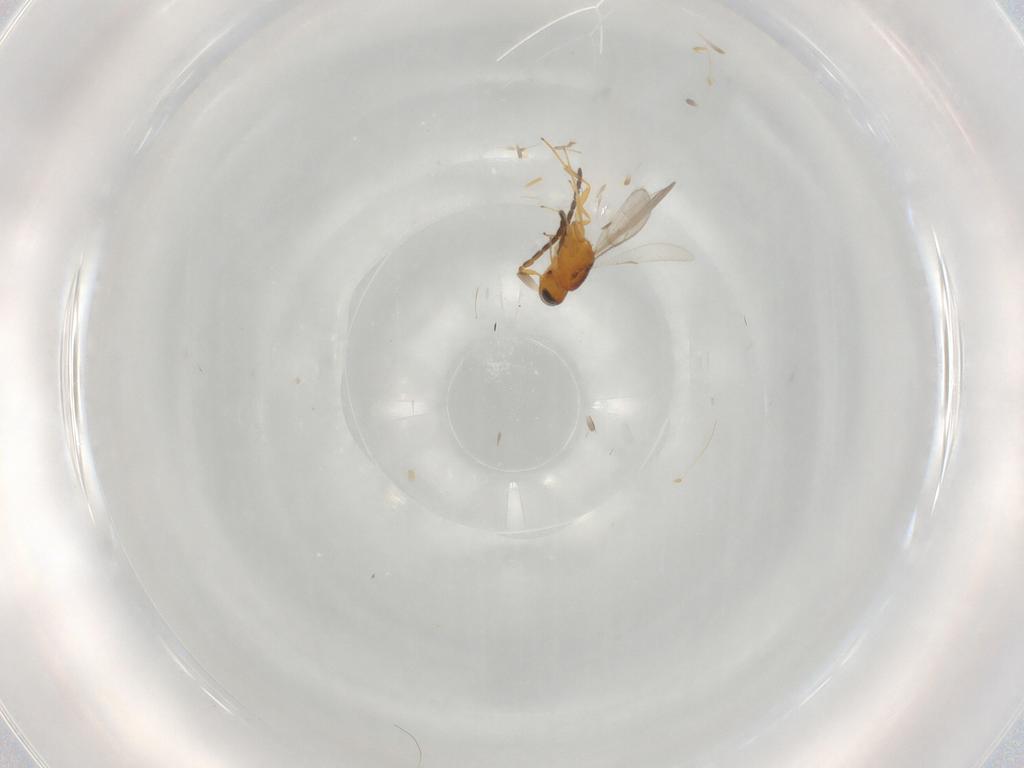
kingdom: Animalia
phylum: Arthropoda
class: Insecta
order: Hymenoptera
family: Scelionidae
